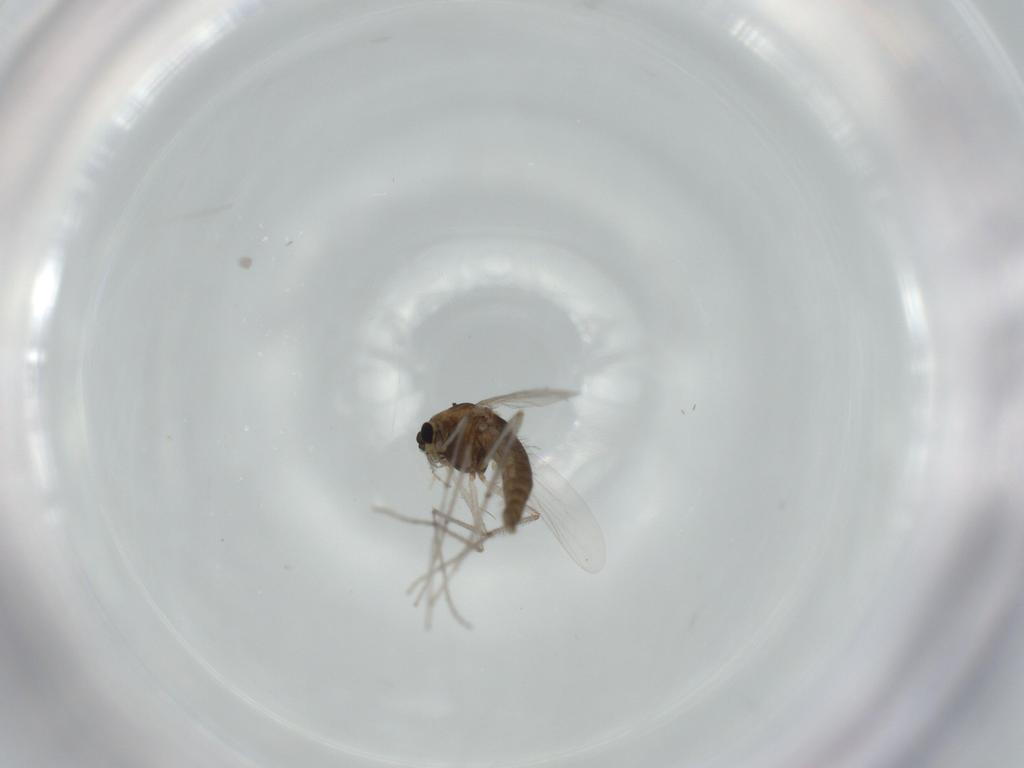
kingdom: Animalia
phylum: Arthropoda
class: Insecta
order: Diptera
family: Chironomidae
